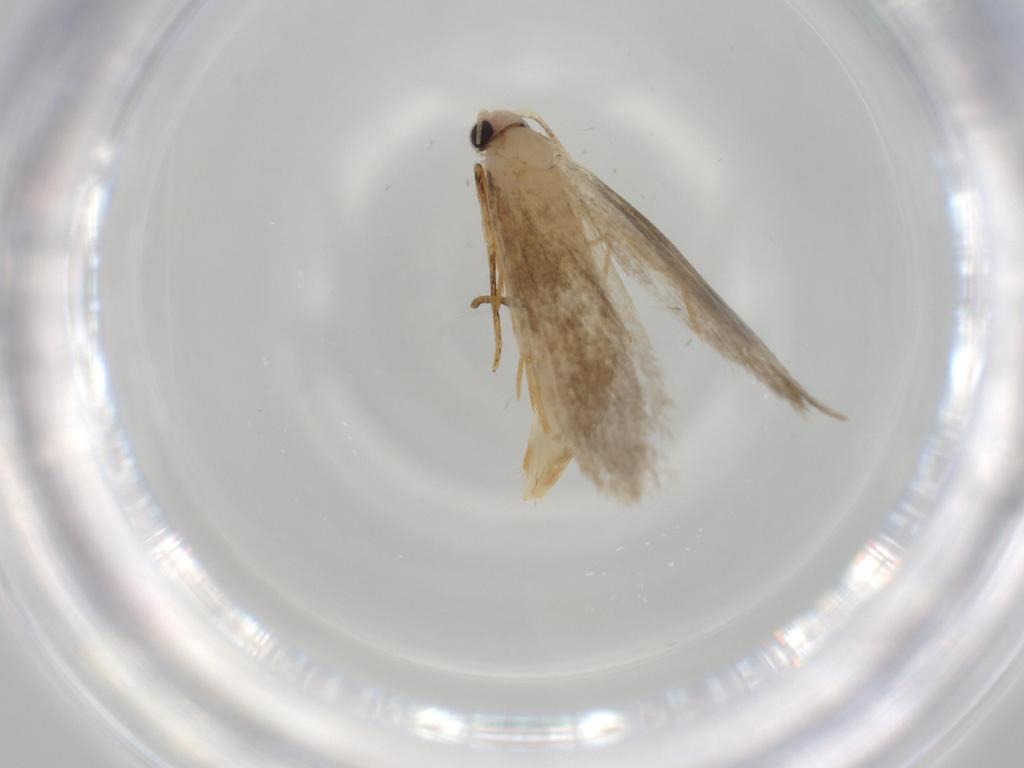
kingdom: Animalia
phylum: Arthropoda
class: Insecta
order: Lepidoptera
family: Tineidae
